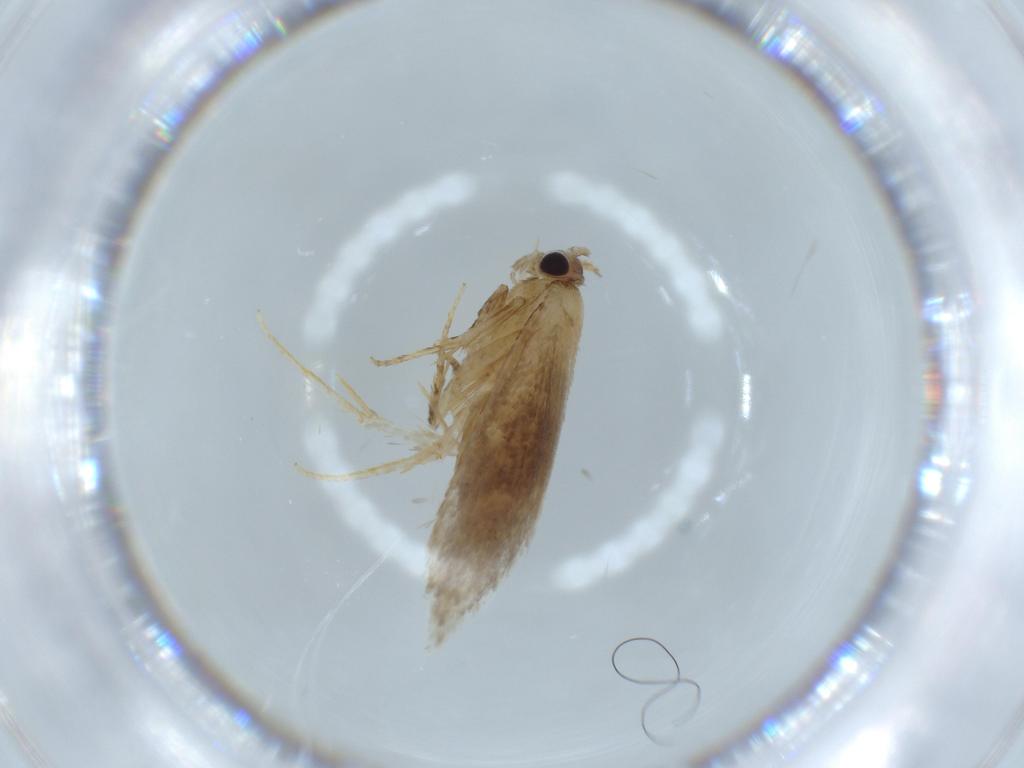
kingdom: Animalia
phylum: Arthropoda
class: Insecta
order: Lepidoptera
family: Tineidae
